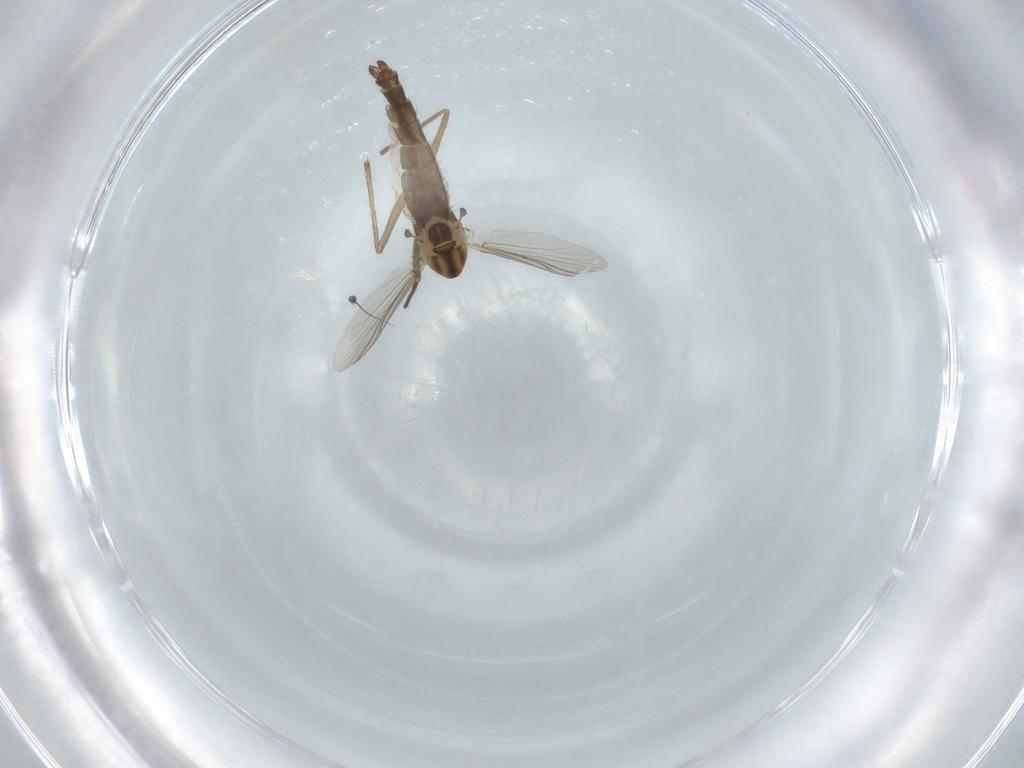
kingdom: Animalia
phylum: Arthropoda
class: Insecta
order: Diptera
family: Chironomidae
